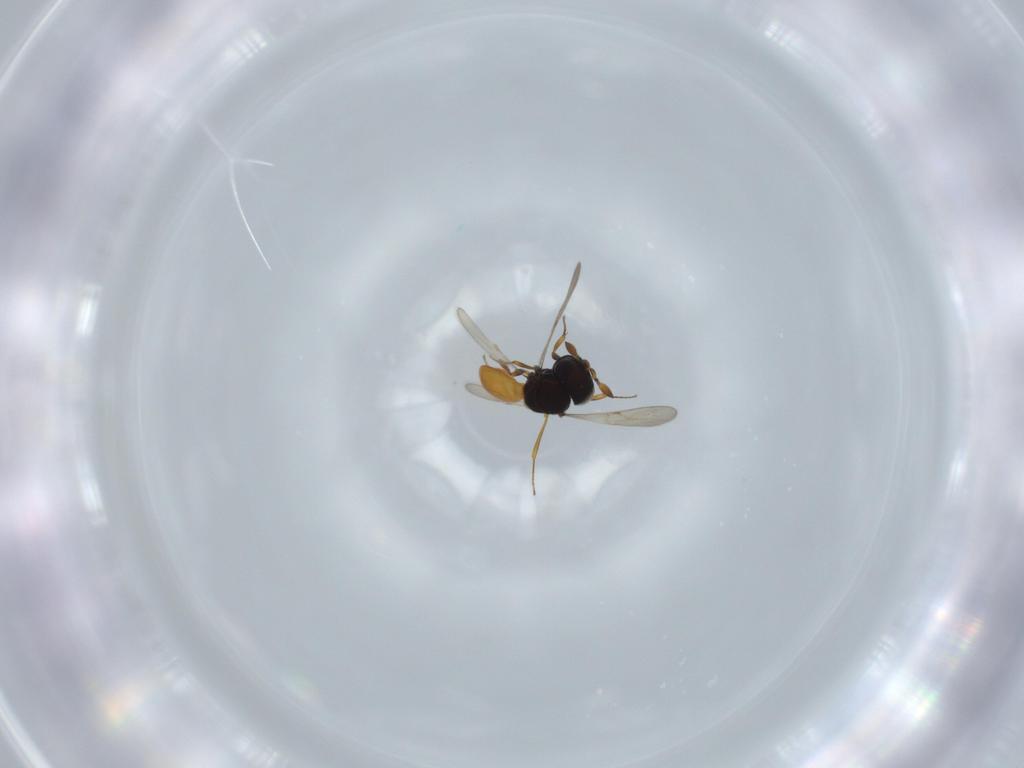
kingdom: Animalia
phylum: Arthropoda
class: Insecta
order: Hymenoptera
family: Scelionidae
